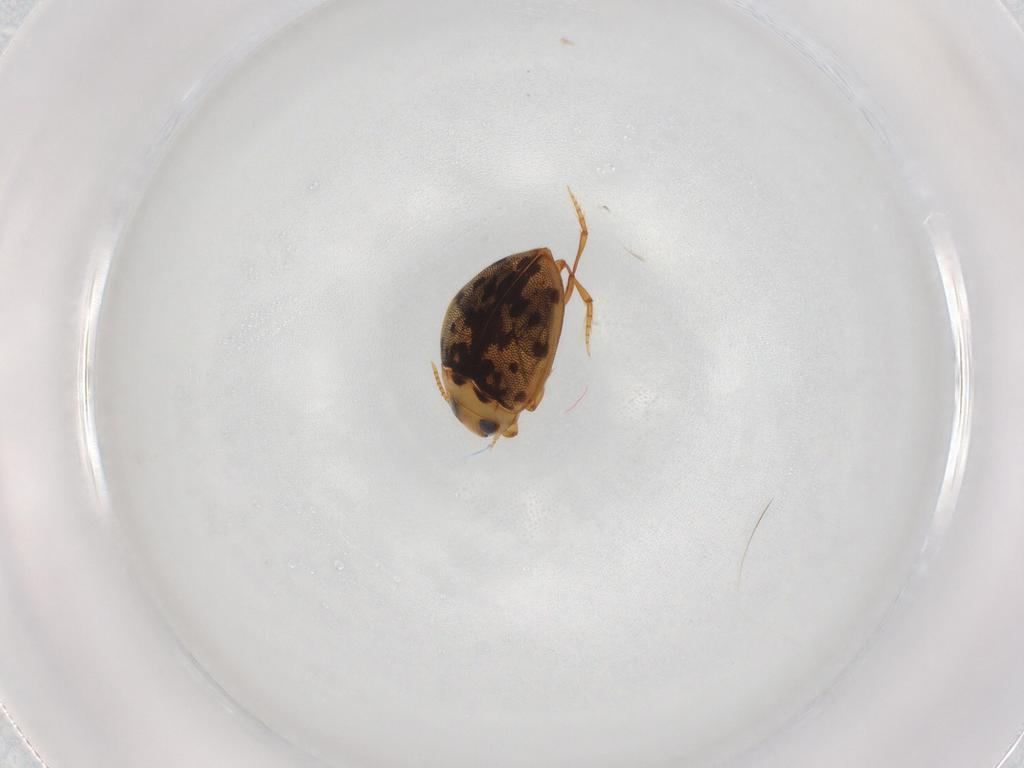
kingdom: Animalia
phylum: Arthropoda
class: Insecta
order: Coleoptera
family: Dytiscidae
